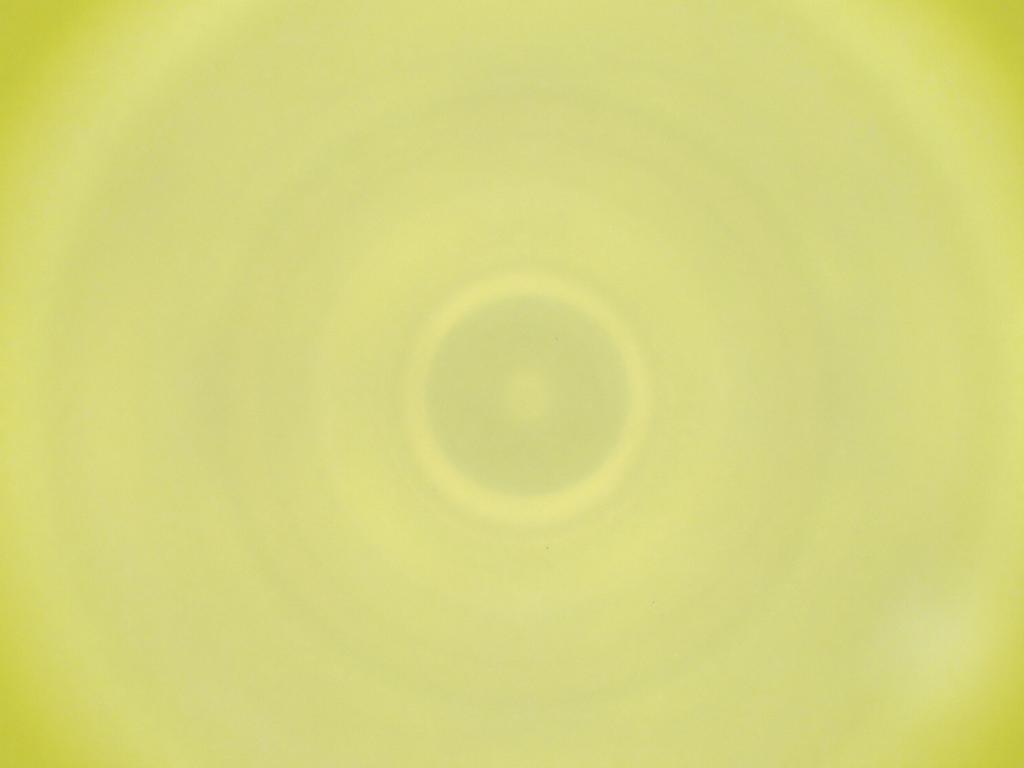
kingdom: Animalia
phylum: Arthropoda
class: Insecta
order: Diptera
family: Cecidomyiidae
